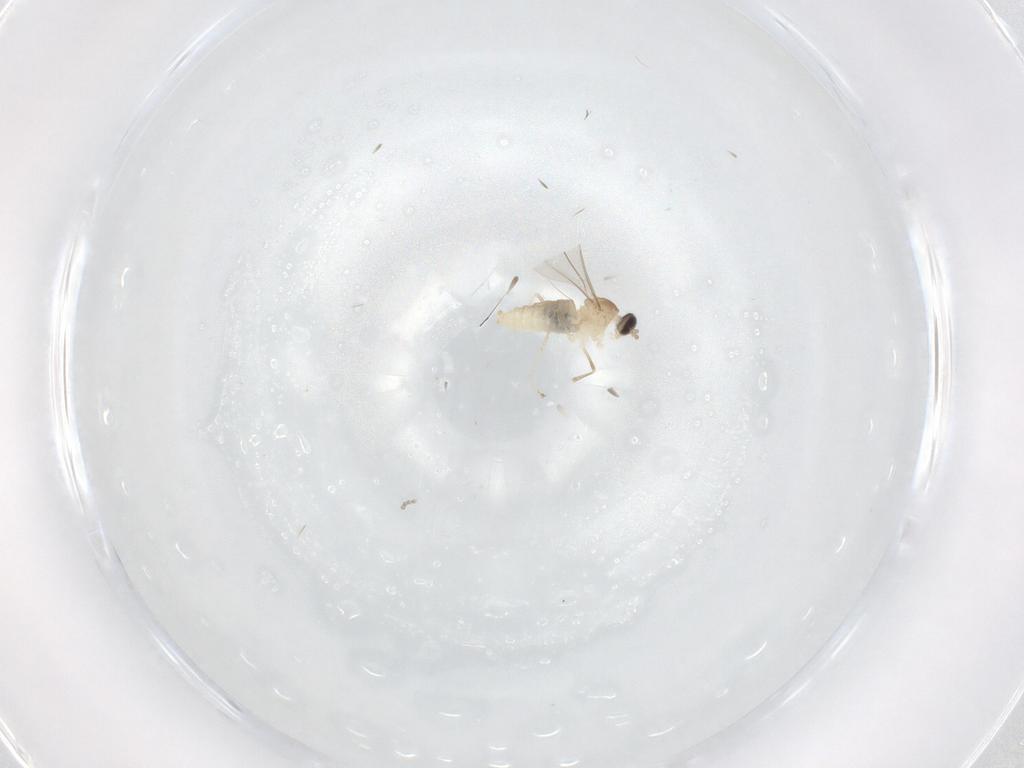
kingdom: Animalia
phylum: Arthropoda
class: Insecta
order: Diptera
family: Cecidomyiidae
